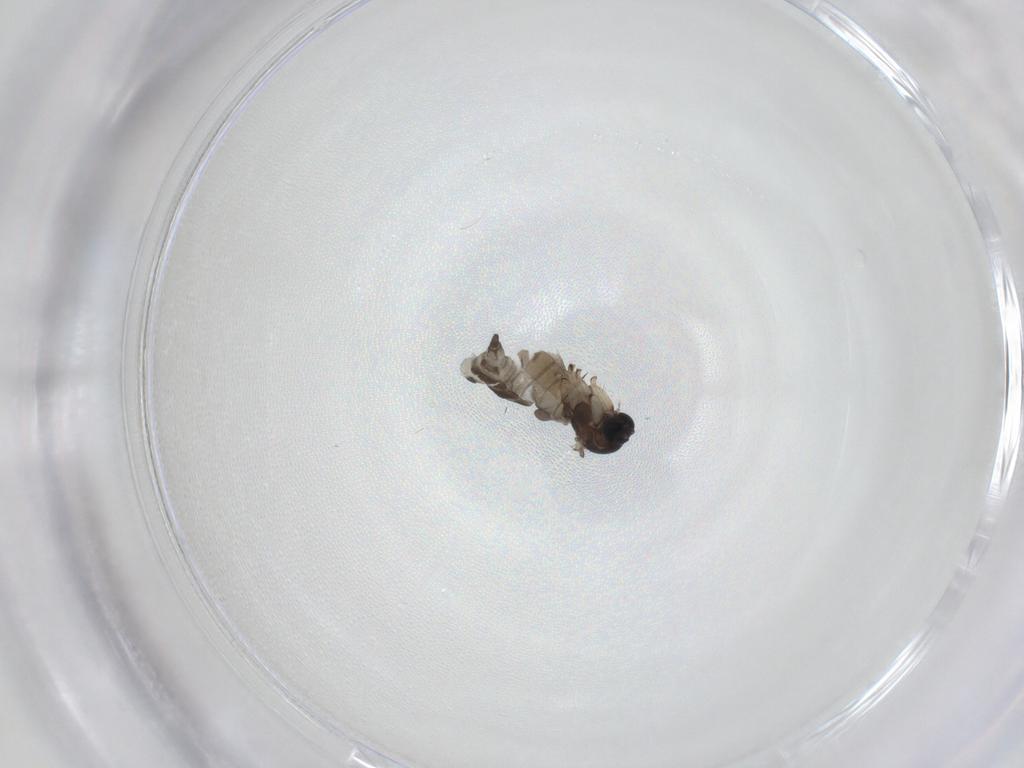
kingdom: Animalia
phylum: Arthropoda
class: Insecta
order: Diptera
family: Sciaridae
